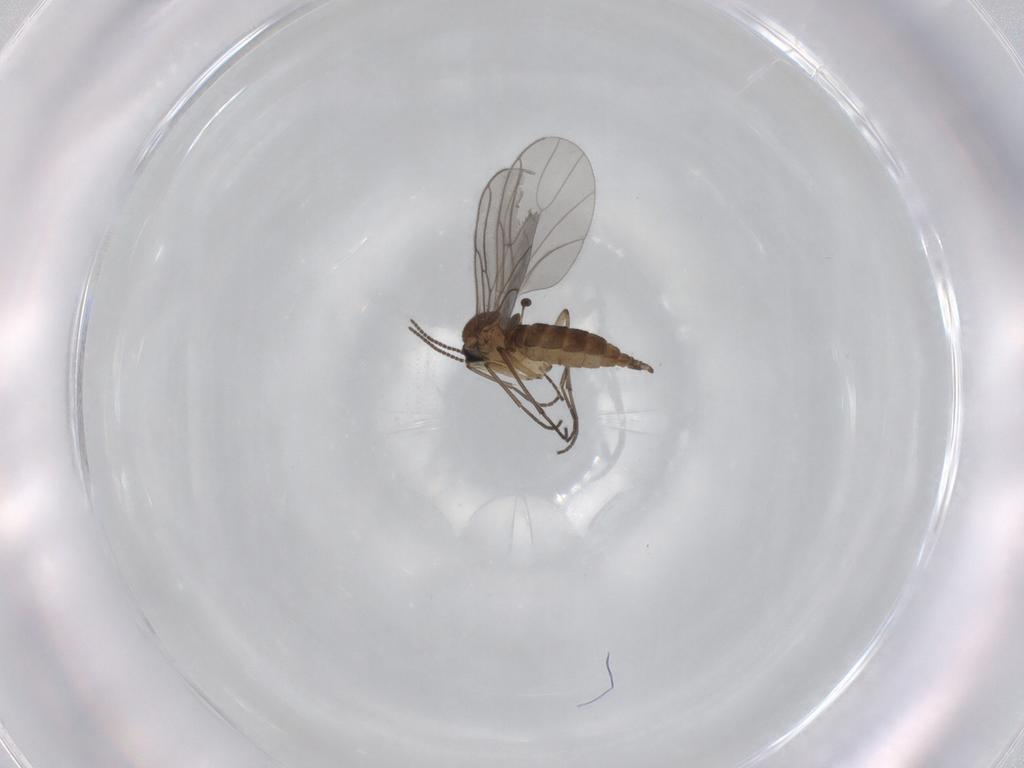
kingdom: Animalia
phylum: Arthropoda
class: Insecta
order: Diptera
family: Sciaridae
